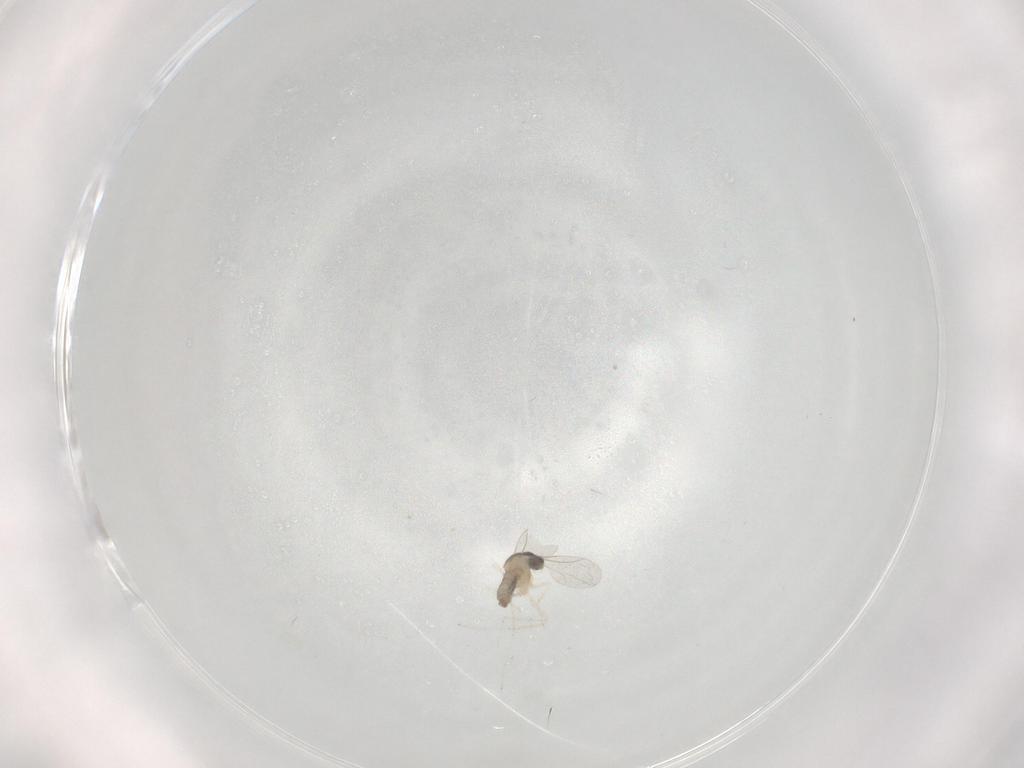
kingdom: Animalia
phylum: Arthropoda
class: Insecta
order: Diptera
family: Cecidomyiidae
